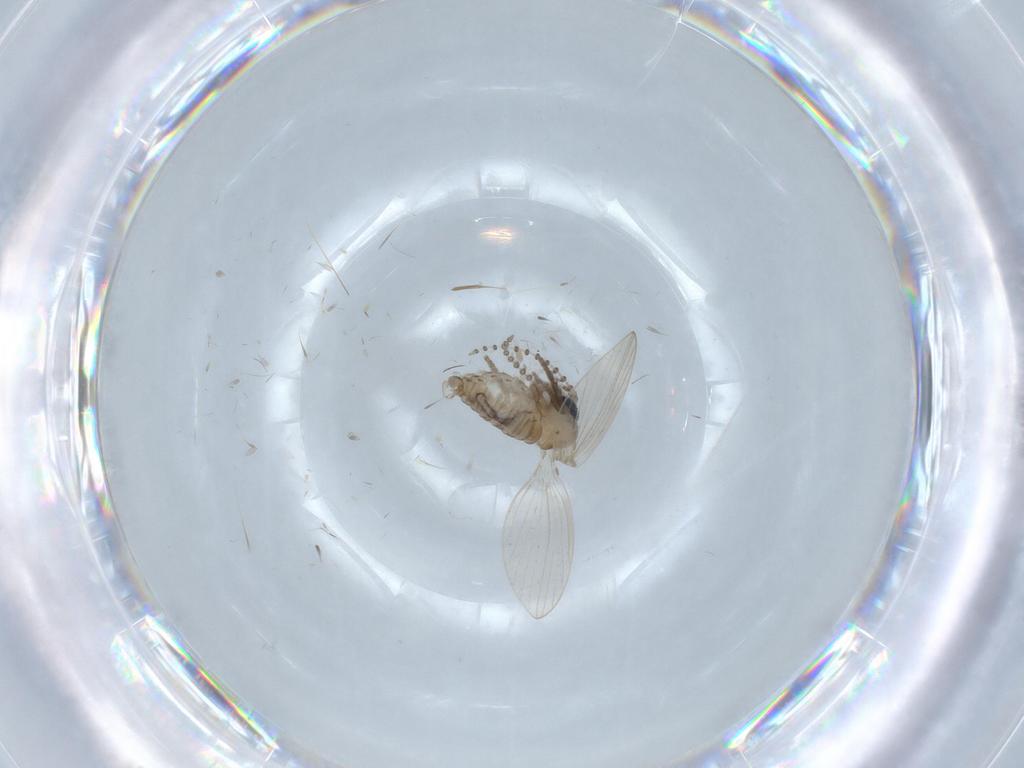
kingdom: Animalia
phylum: Arthropoda
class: Insecta
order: Diptera
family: Psychodidae
